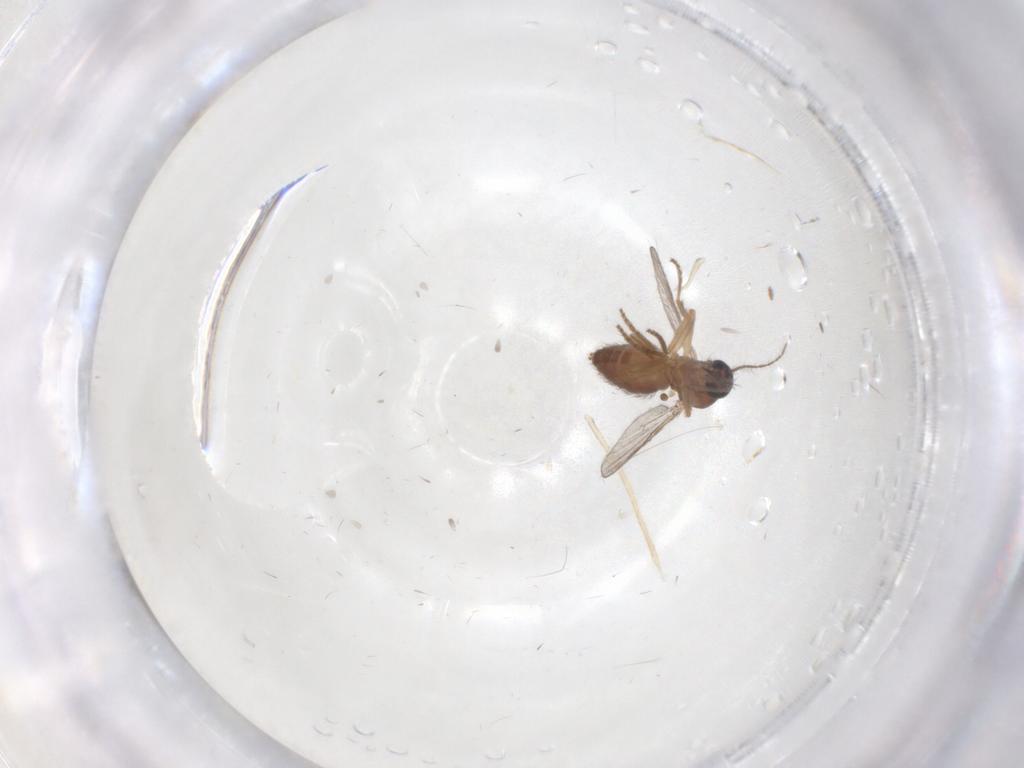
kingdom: Animalia
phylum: Arthropoda
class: Insecta
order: Diptera
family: Ceratopogonidae
